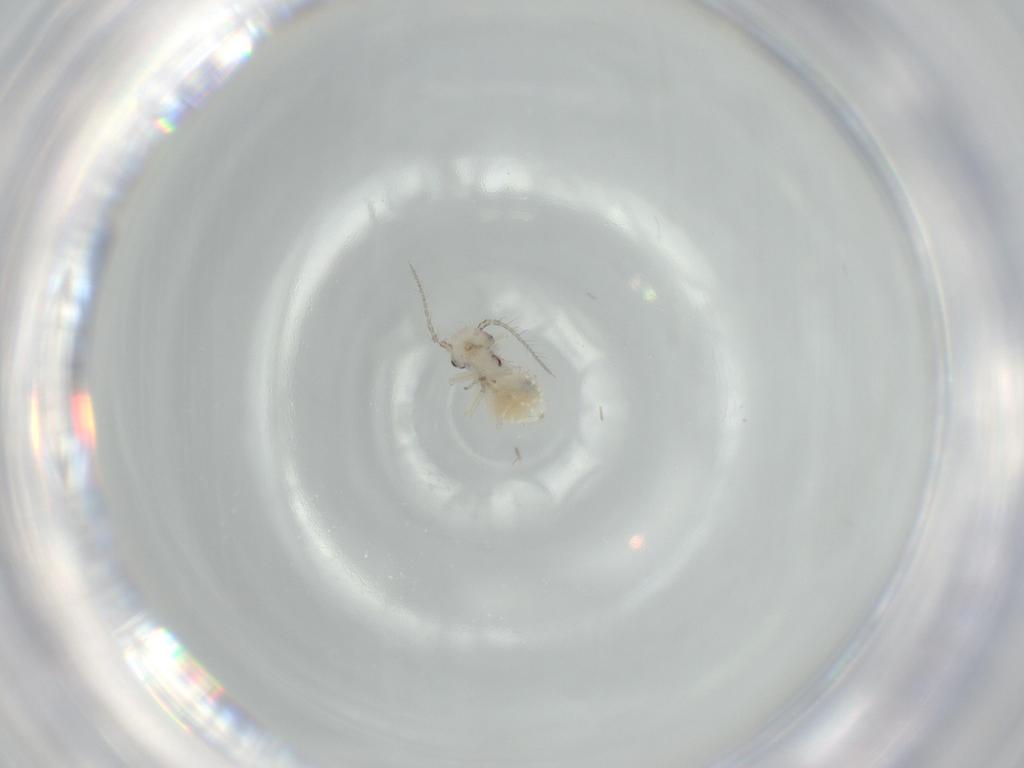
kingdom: Animalia
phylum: Arthropoda
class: Insecta
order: Psocodea
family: Pseudocaeciliidae
